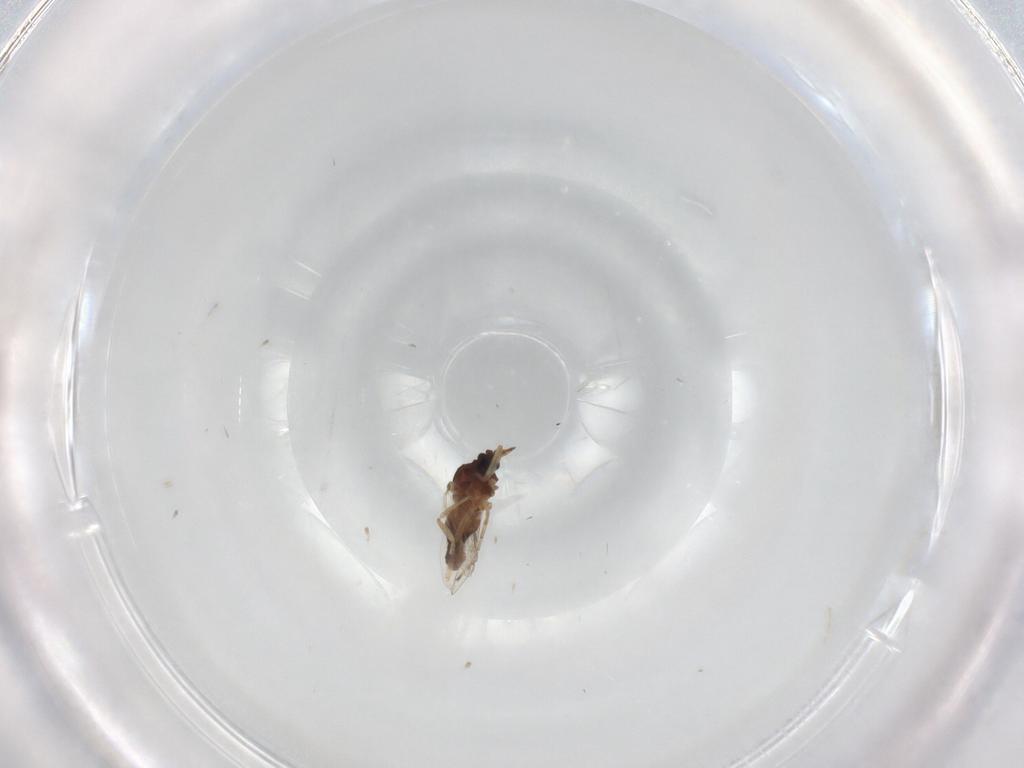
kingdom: Animalia
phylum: Arthropoda
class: Insecta
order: Diptera
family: Ceratopogonidae
